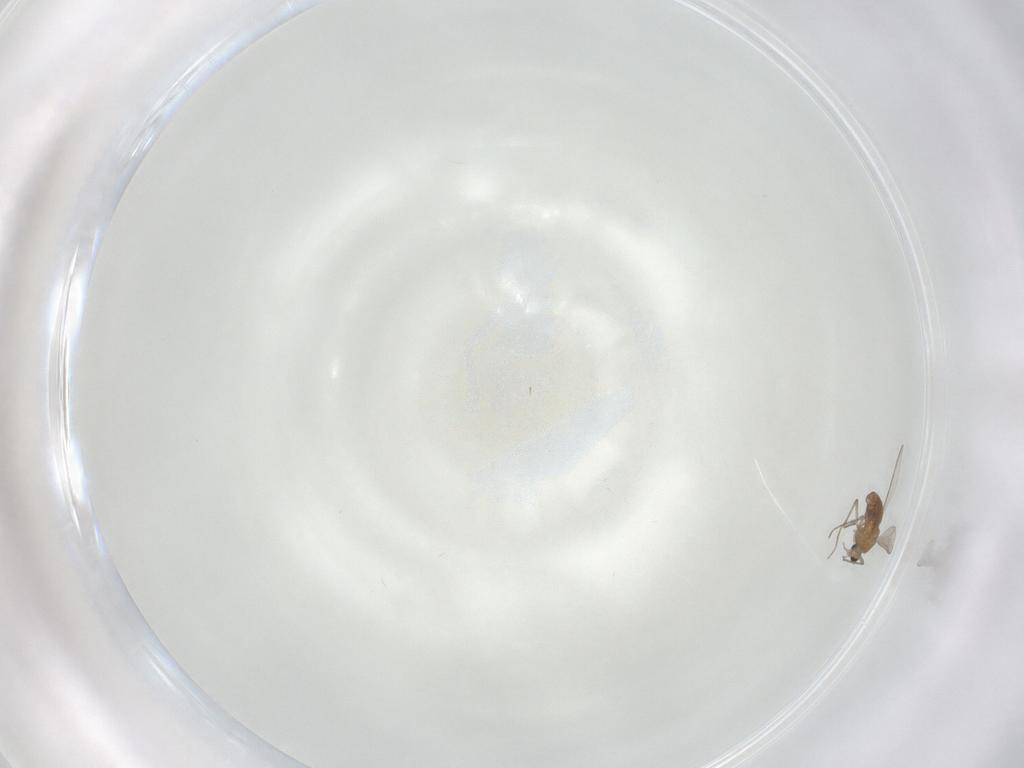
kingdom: Animalia
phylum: Arthropoda
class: Insecta
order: Diptera
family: Chironomidae
